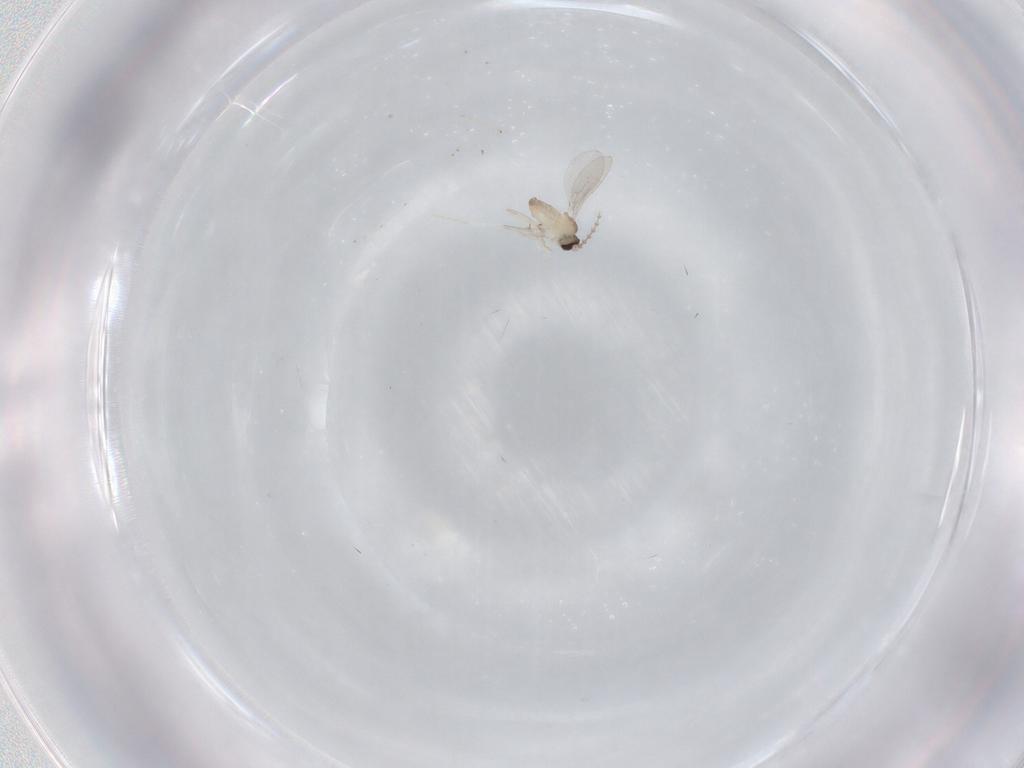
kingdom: Animalia
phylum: Arthropoda
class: Insecta
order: Diptera
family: Cecidomyiidae
